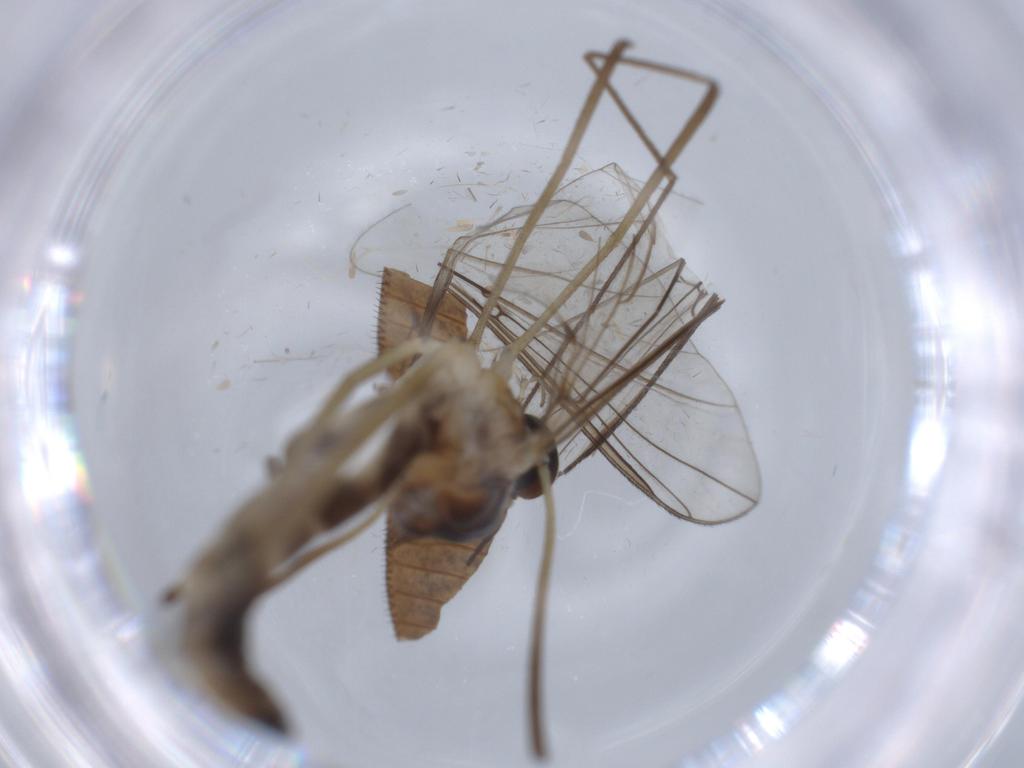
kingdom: Animalia
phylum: Arthropoda
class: Insecta
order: Diptera
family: Blephariceridae
